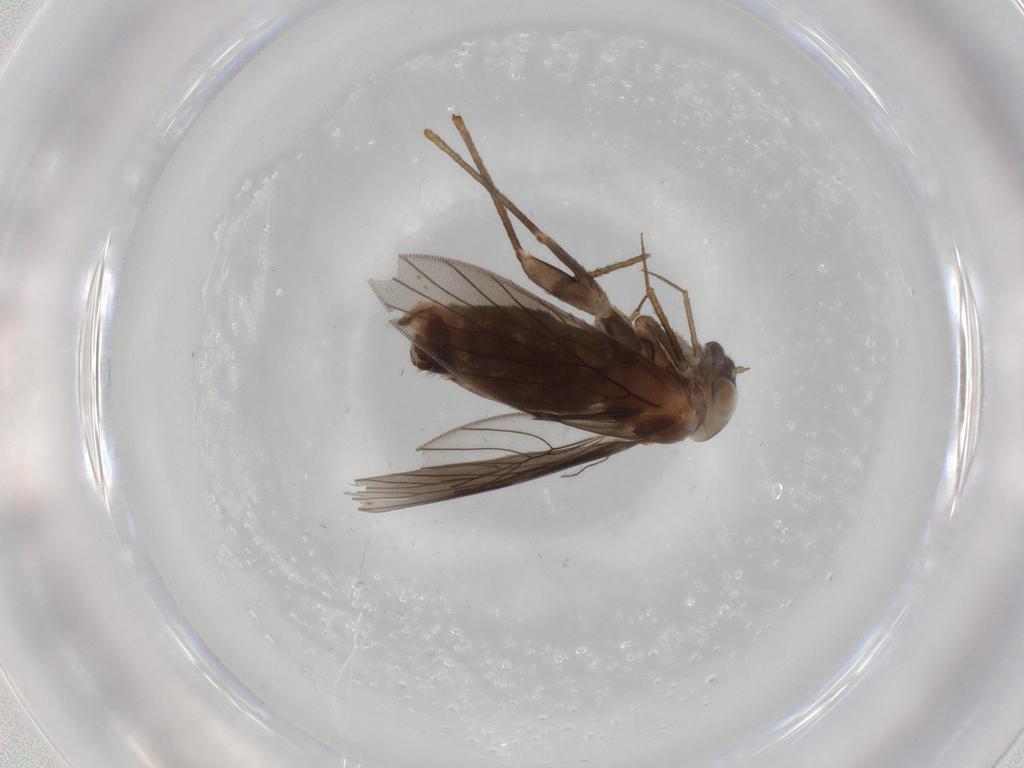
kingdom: Animalia
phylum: Arthropoda
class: Insecta
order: Psocodea
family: Lepidopsocidae
